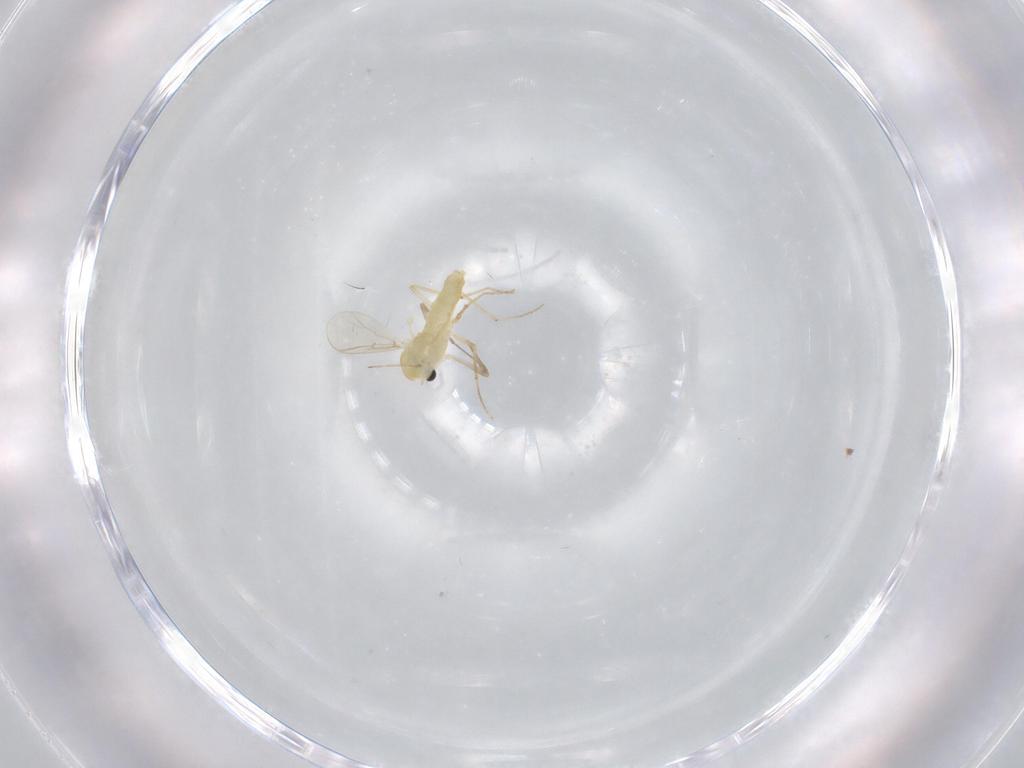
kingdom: Animalia
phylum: Arthropoda
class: Insecta
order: Diptera
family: Chironomidae
